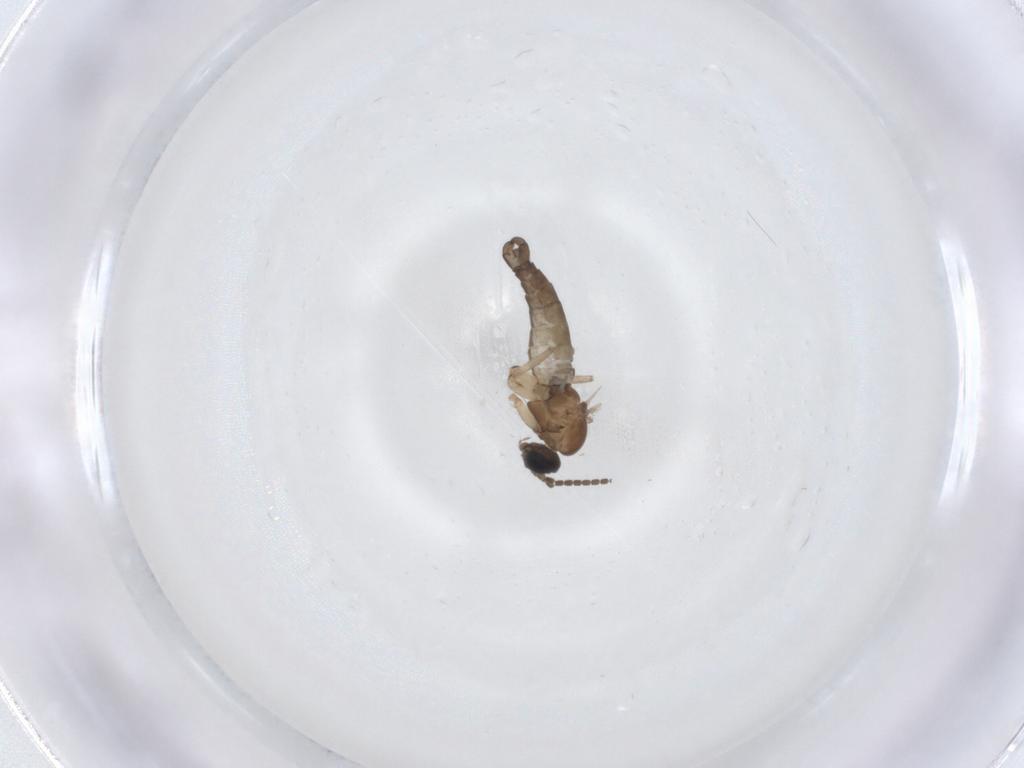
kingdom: Animalia
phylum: Arthropoda
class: Insecta
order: Diptera
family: Sciaridae
